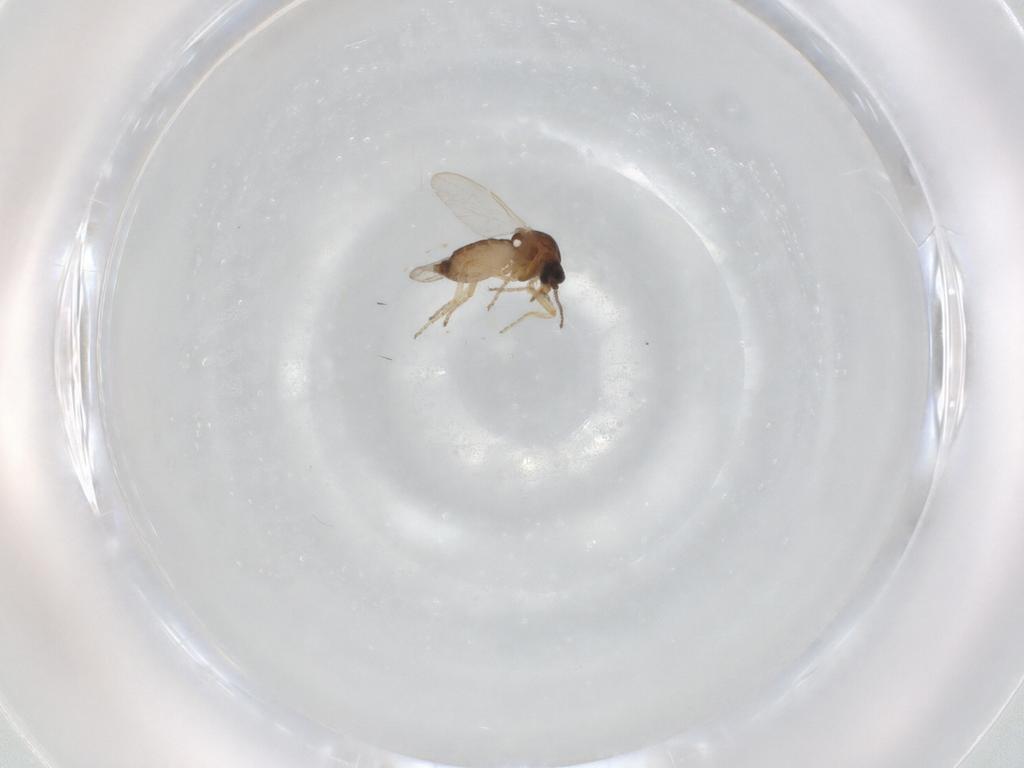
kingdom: Animalia
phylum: Arthropoda
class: Insecta
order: Diptera
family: Ceratopogonidae
